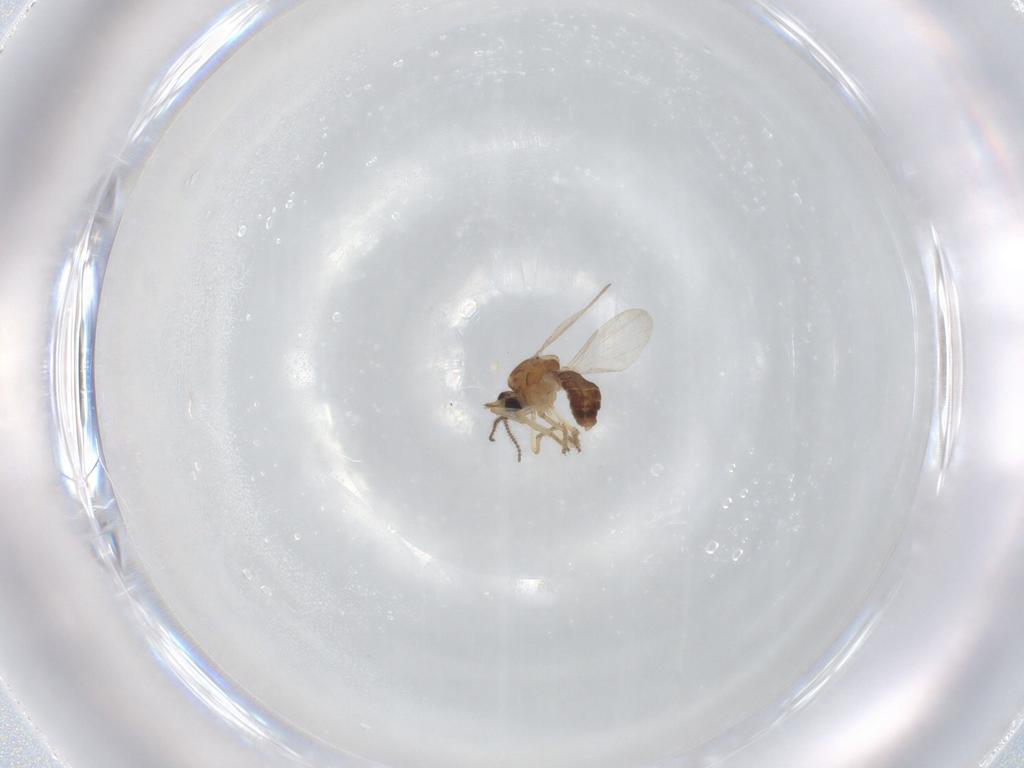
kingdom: Animalia
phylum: Arthropoda
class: Insecta
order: Diptera
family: Ceratopogonidae
